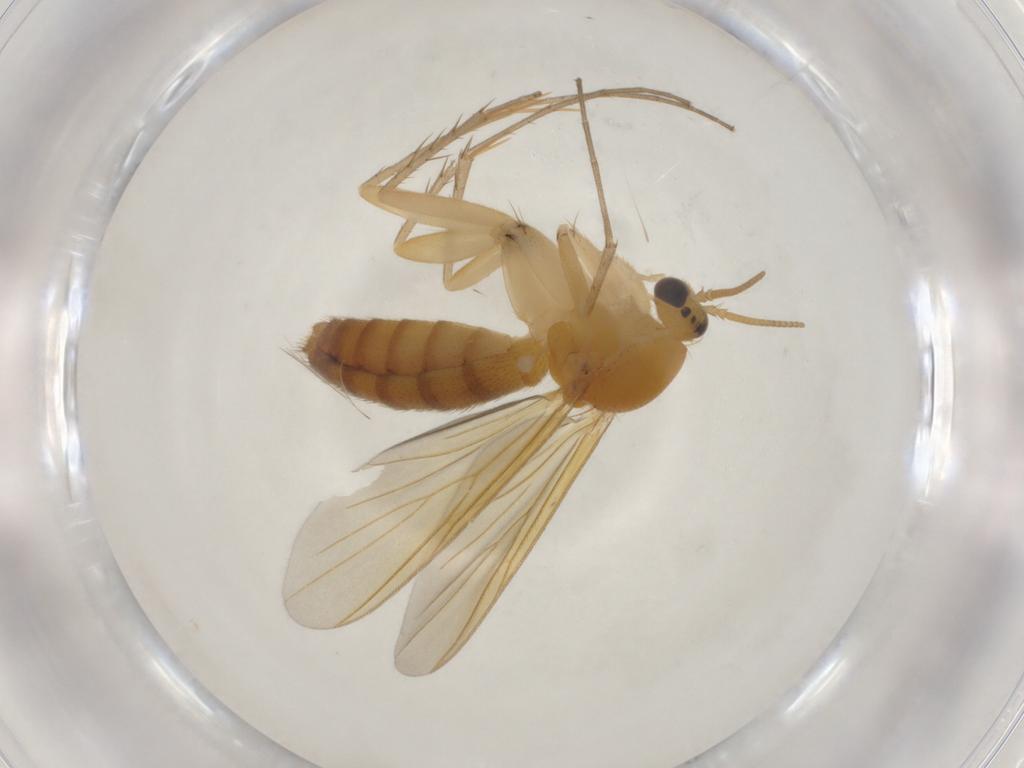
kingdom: Animalia
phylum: Arthropoda
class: Insecta
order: Diptera
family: Mycetophilidae
